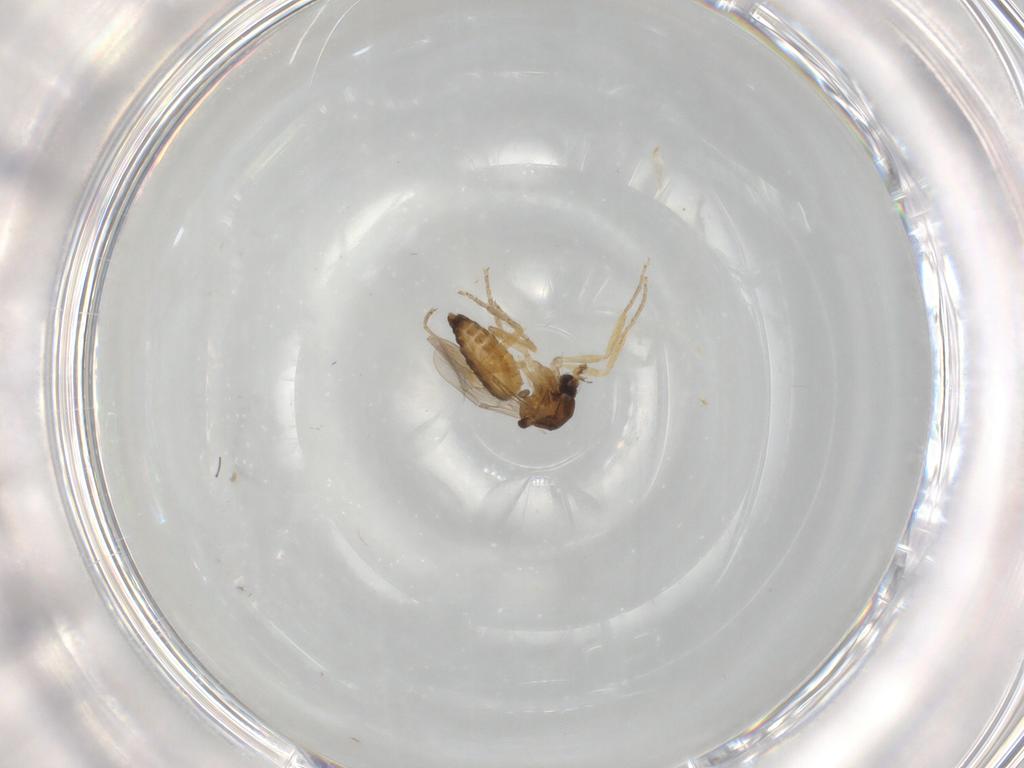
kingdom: Animalia
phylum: Arthropoda
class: Insecta
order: Diptera
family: Ceratopogonidae
